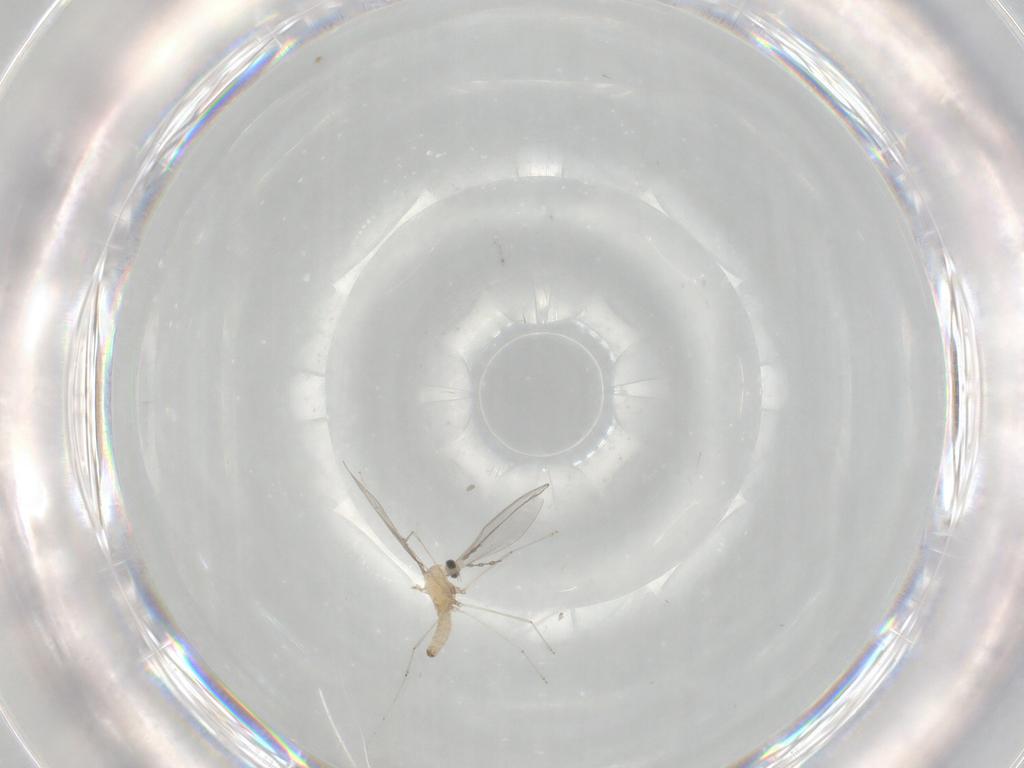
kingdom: Animalia
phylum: Arthropoda
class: Insecta
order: Diptera
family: Cecidomyiidae
